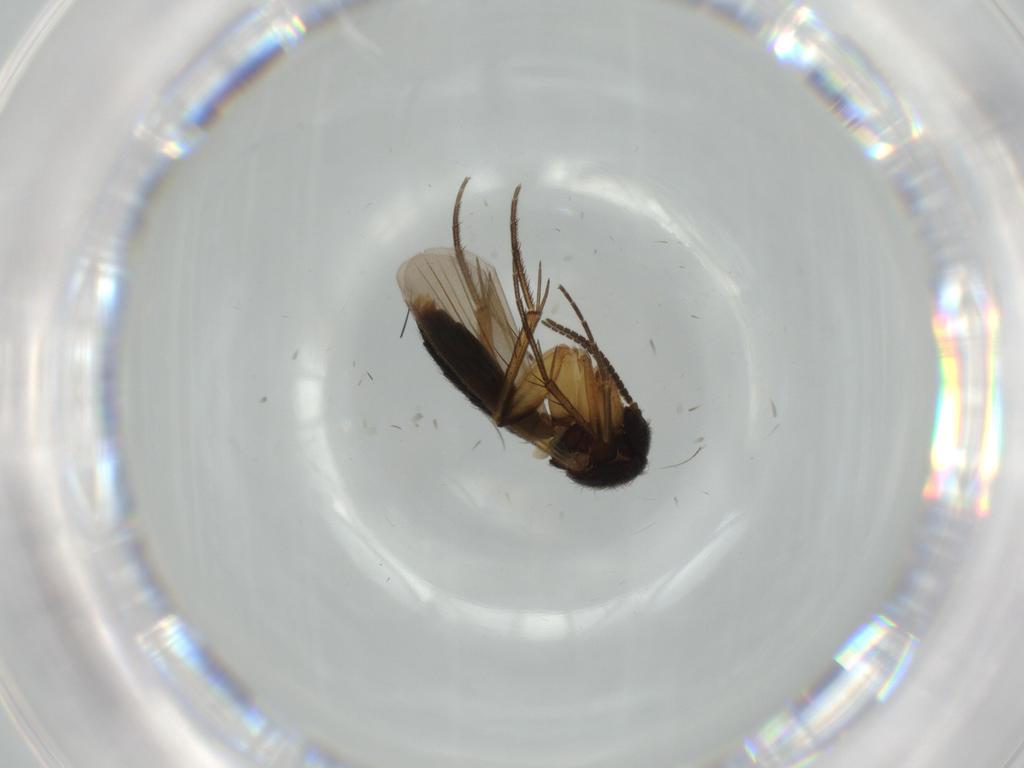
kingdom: Animalia
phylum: Arthropoda
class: Insecta
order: Diptera
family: Mycetophilidae
